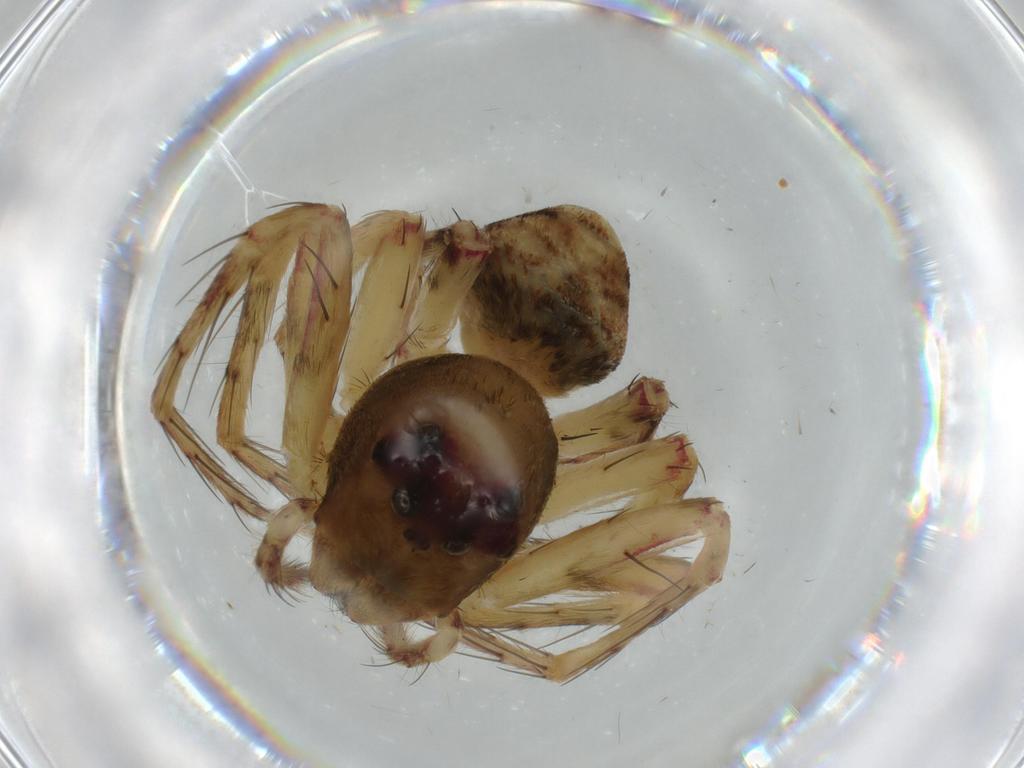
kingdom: Animalia
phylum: Arthropoda
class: Arachnida
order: Araneae
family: Oxyopidae
